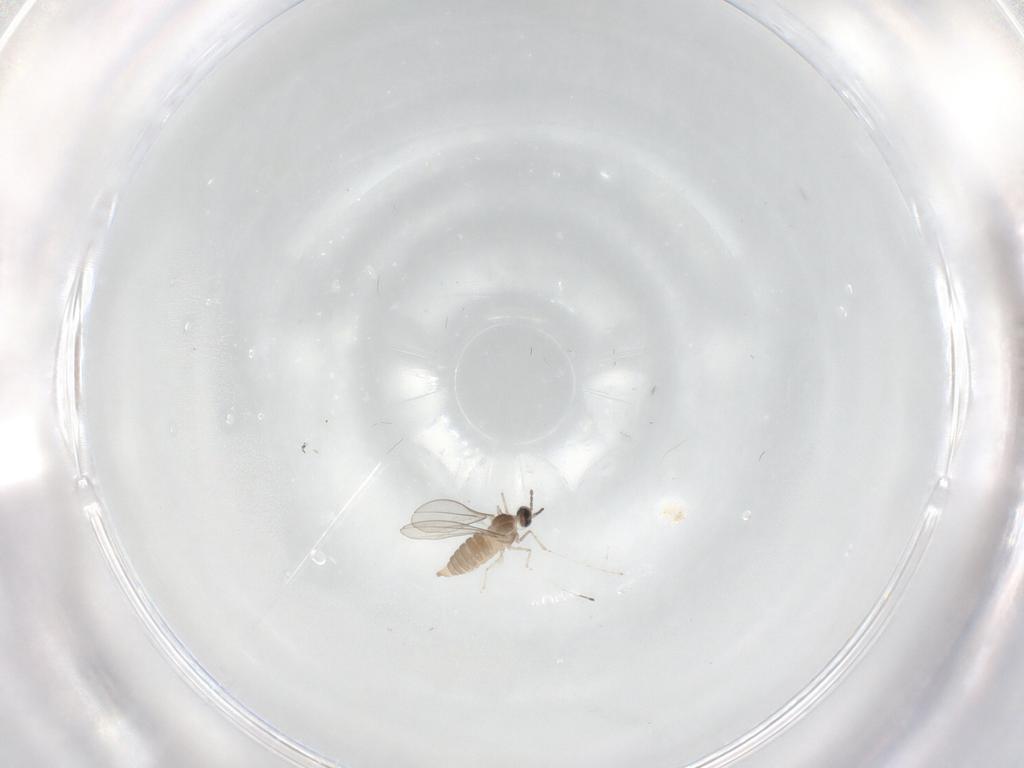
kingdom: Animalia
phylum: Arthropoda
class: Insecta
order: Diptera
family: Cecidomyiidae
